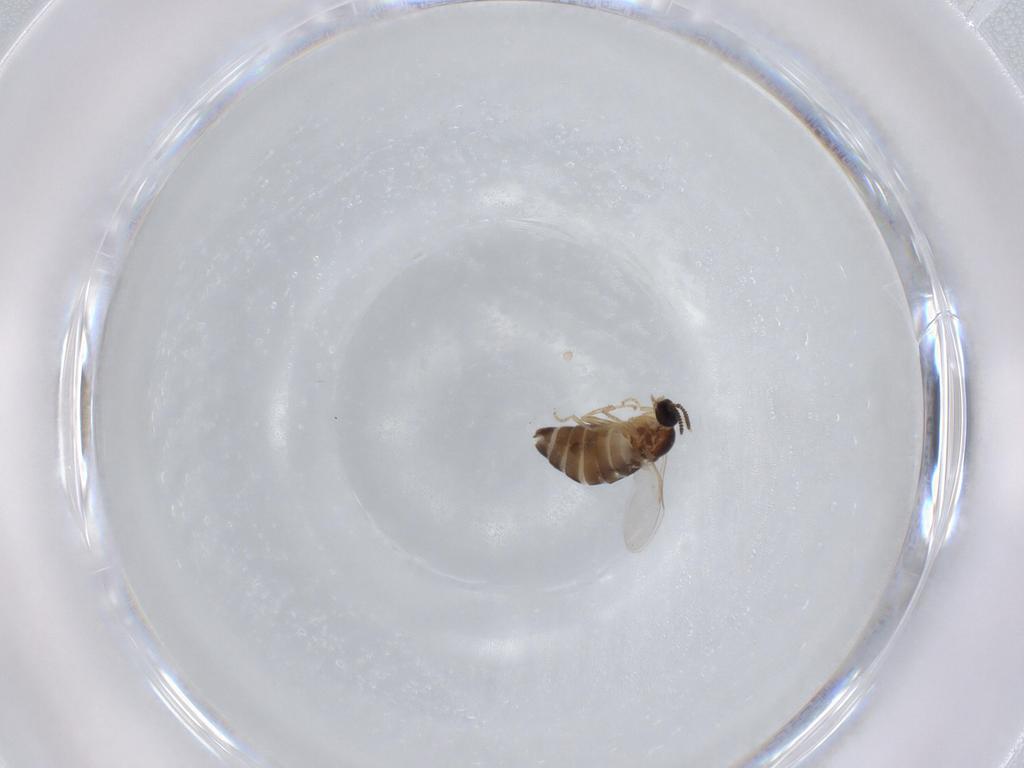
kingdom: Animalia
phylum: Arthropoda
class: Insecta
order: Diptera
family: Scatopsidae
